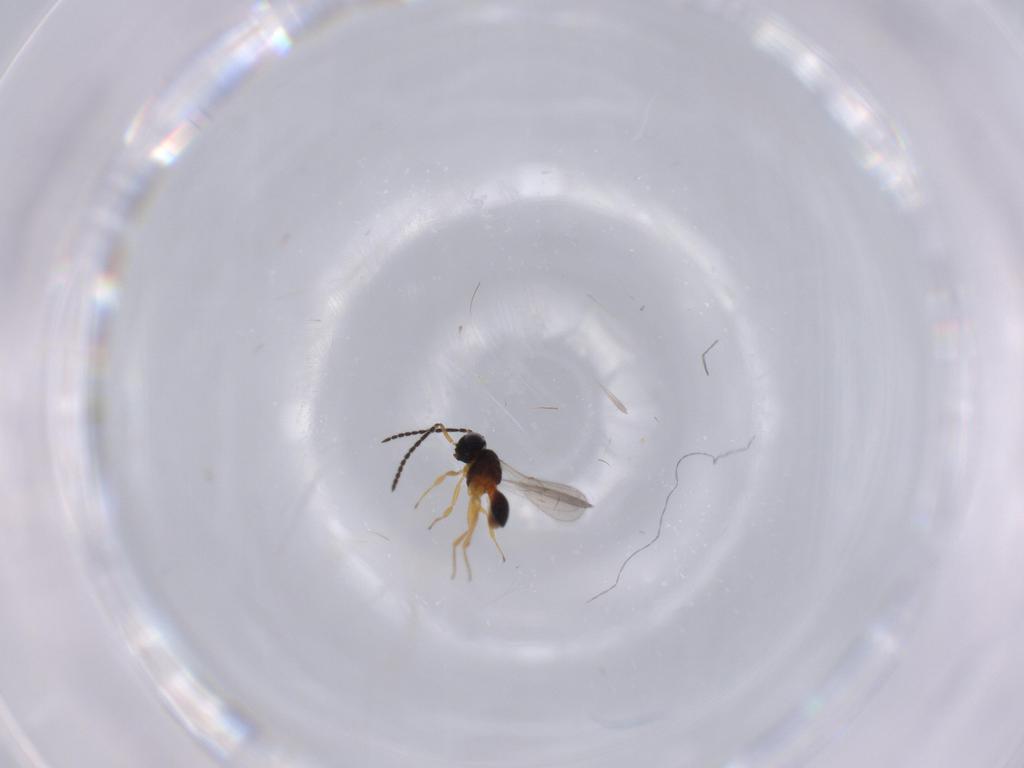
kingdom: Animalia
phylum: Arthropoda
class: Insecta
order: Hymenoptera
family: Scelionidae
